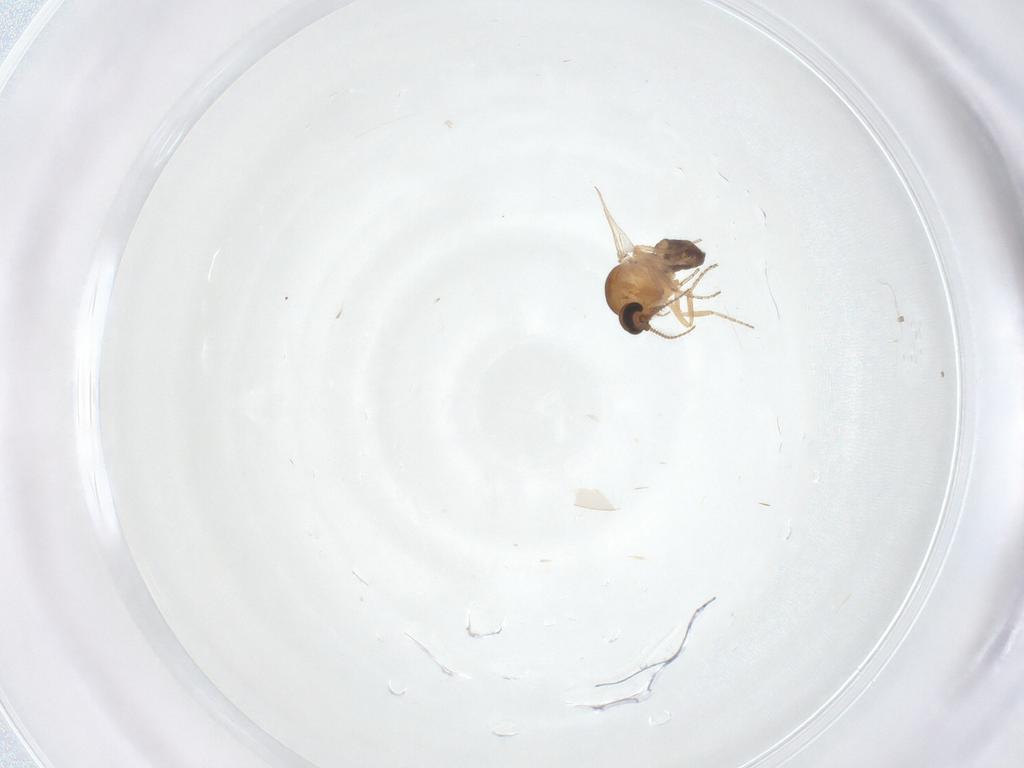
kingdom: Animalia
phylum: Arthropoda
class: Insecta
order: Diptera
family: Ceratopogonidae
